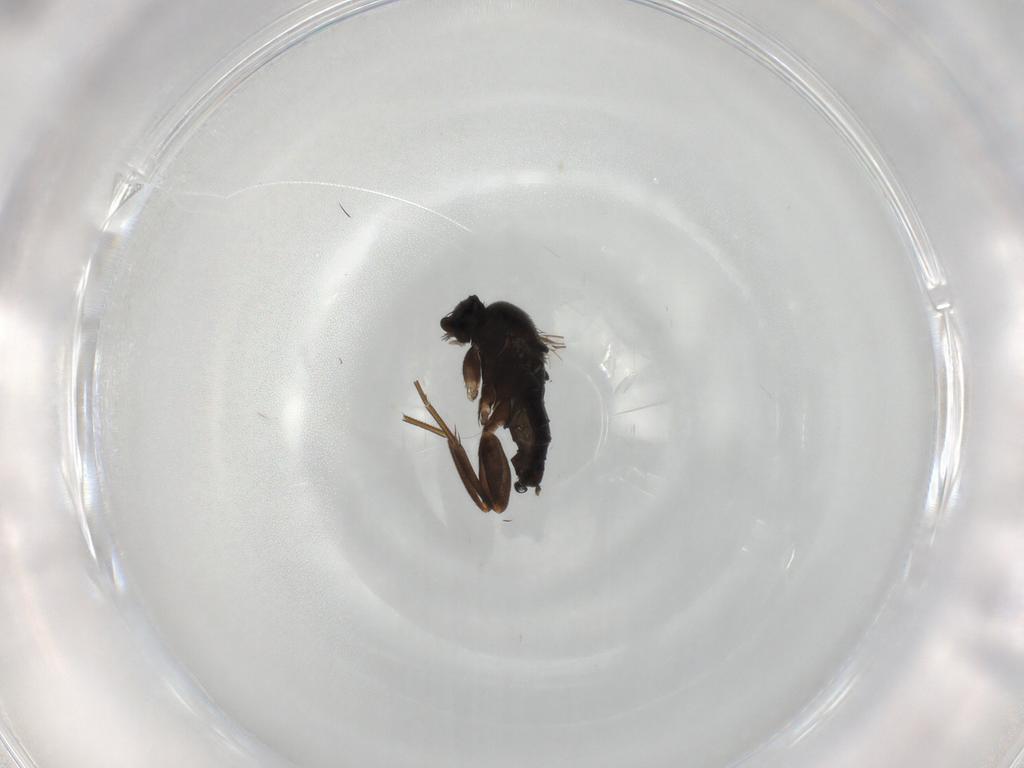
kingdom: Animalia
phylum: Arthropoda
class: Insecta
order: Diptera
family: Phoridae
